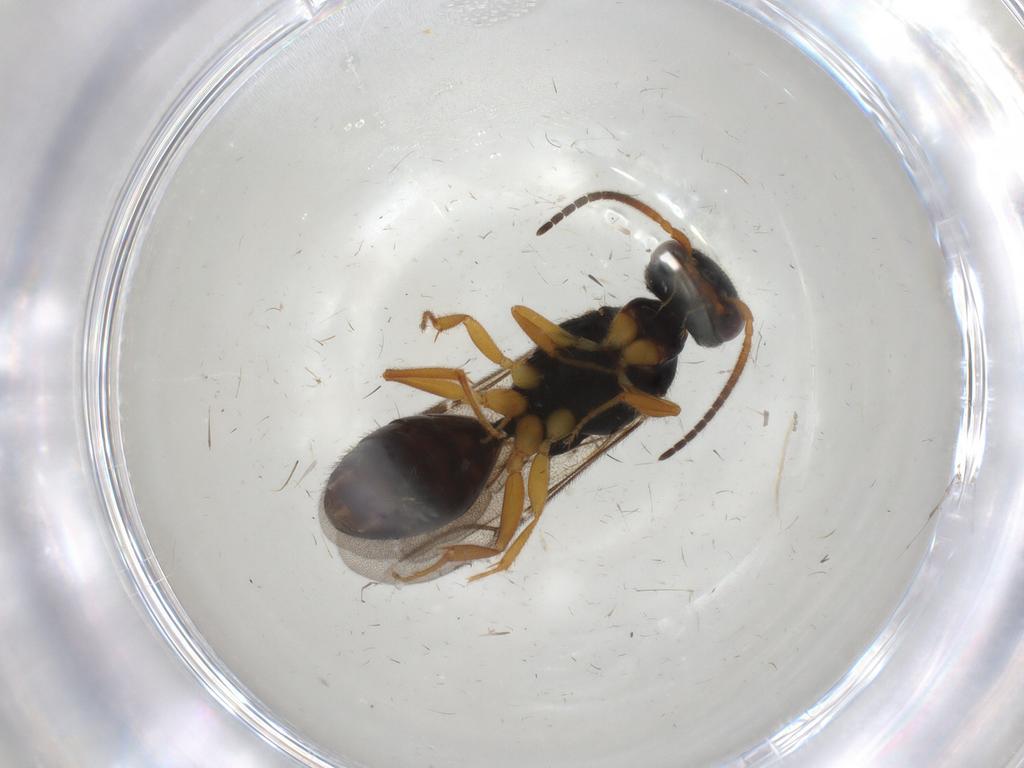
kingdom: Animalia
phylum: Arthropoda
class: Insecta
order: Hymenoptera
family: Bethylidae
